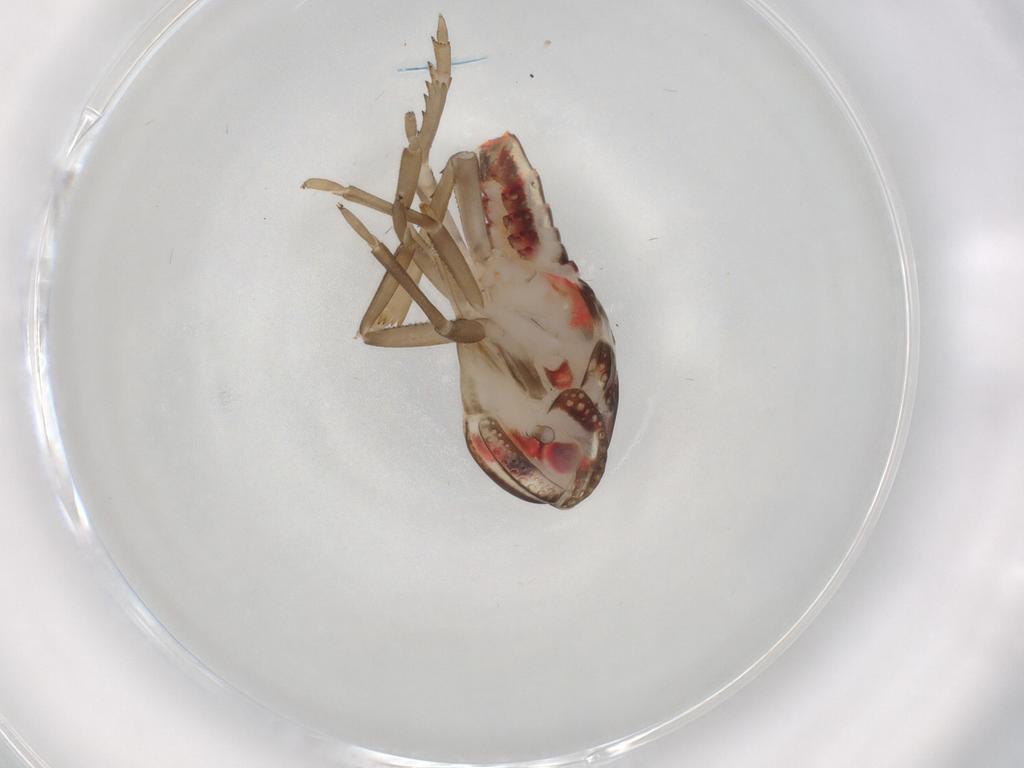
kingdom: Animalia
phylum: Arthropoda
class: Insecta
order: Hemiptera
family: Nogodinidae
